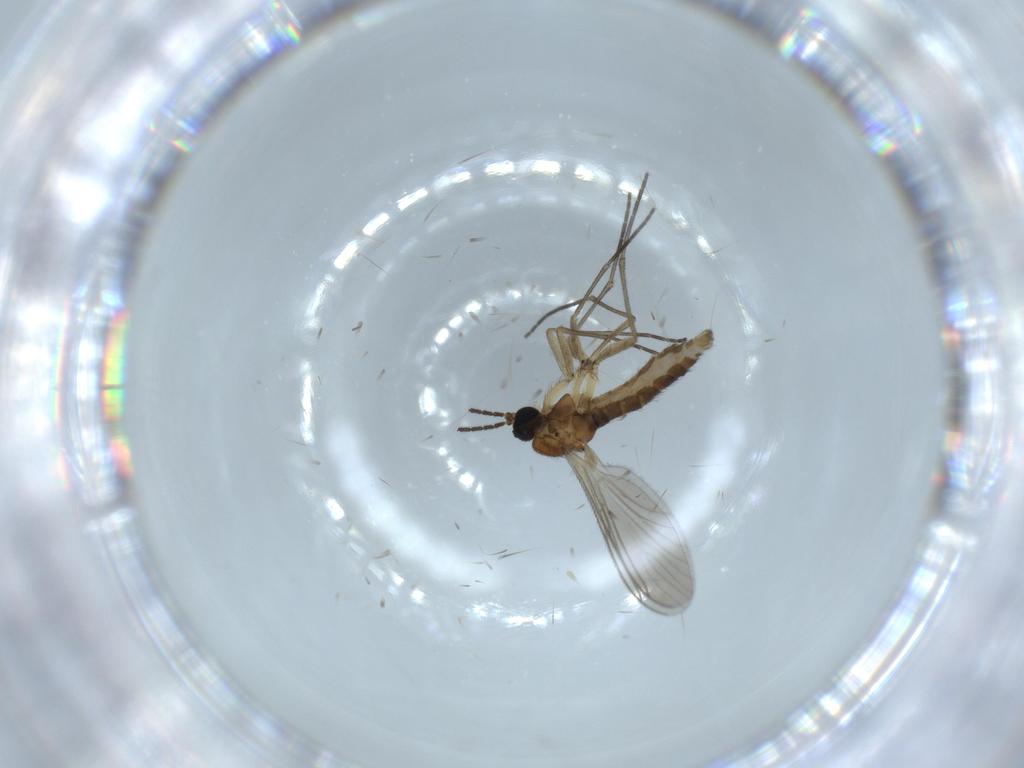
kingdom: Animalia
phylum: Arthropoda
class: Insecta
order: Diptera
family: Sciaridae
